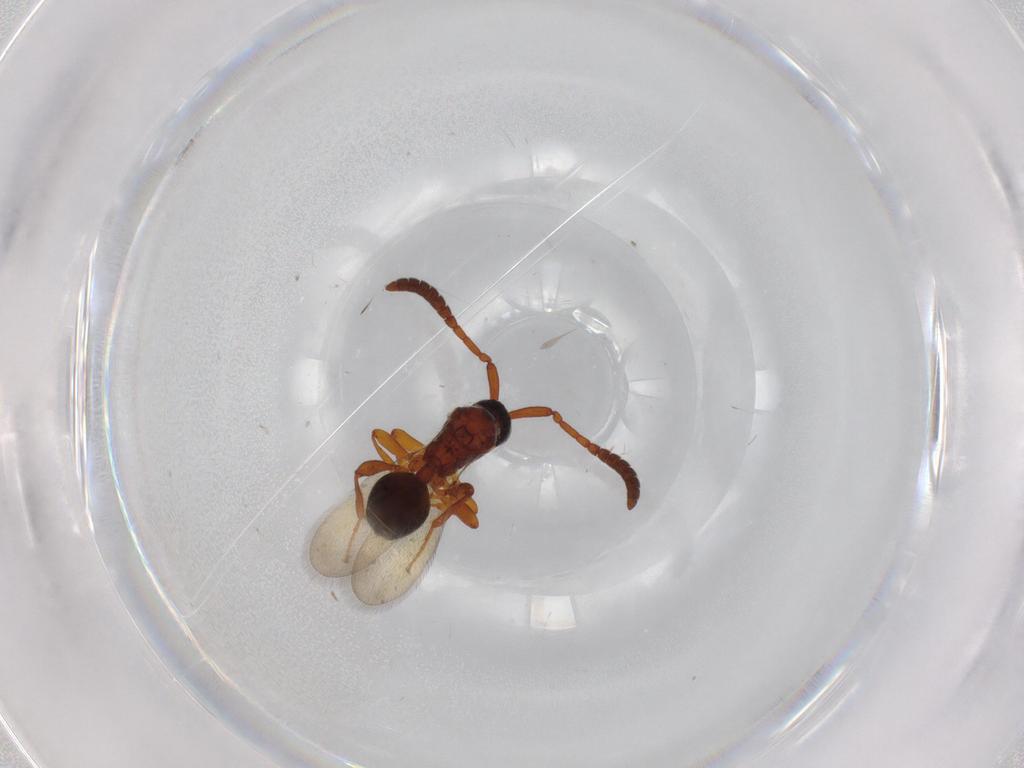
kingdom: Animalia
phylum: Arthropoda
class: Insecta
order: Hymenoptera
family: Diapriidae
